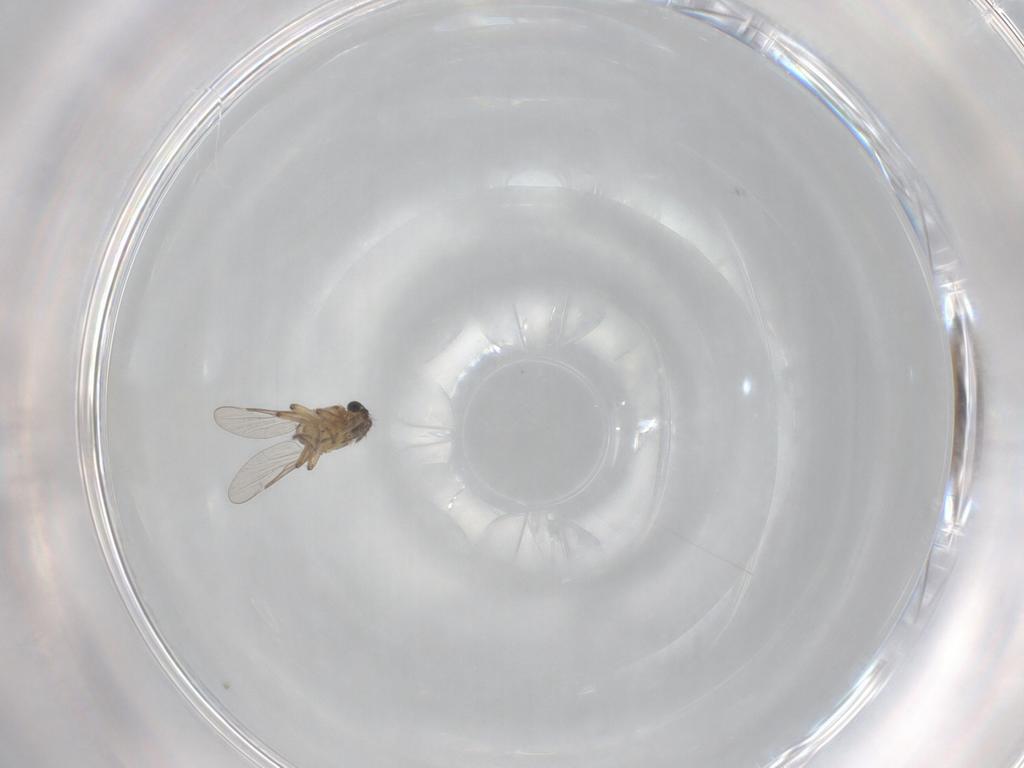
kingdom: Animalia
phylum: Arthropoda
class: Insecta
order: Diptera
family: Ceratopogonidae
